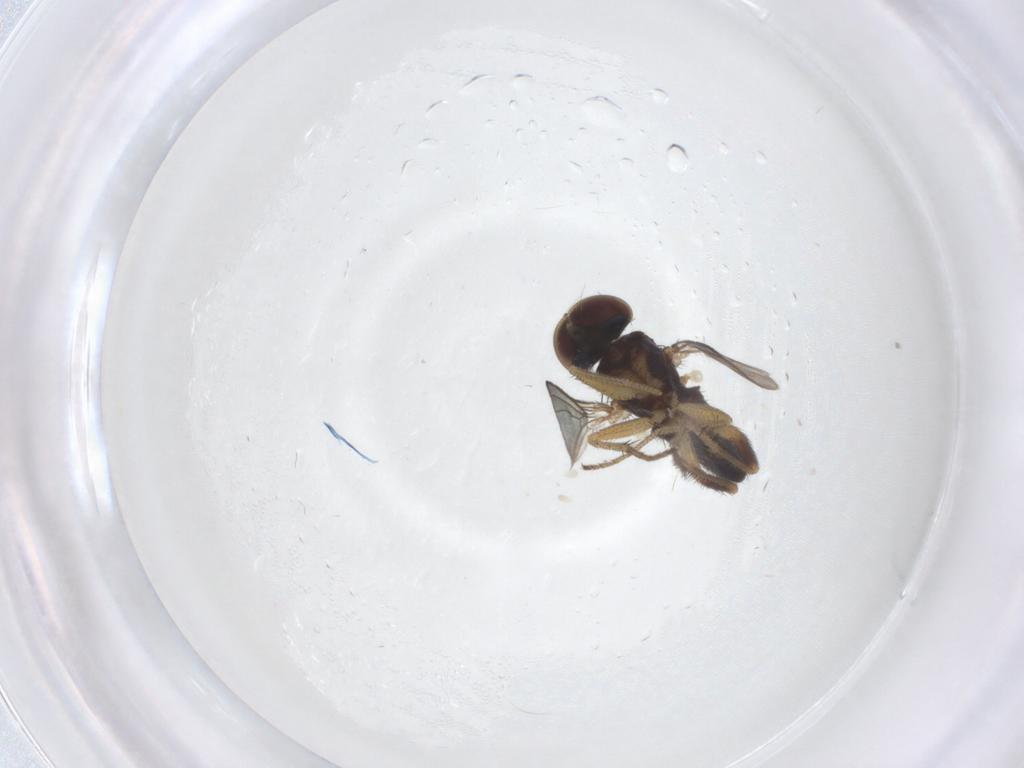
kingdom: Animalia
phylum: Arthropoda
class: Insecta
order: Diptera
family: Dolichopodidae
